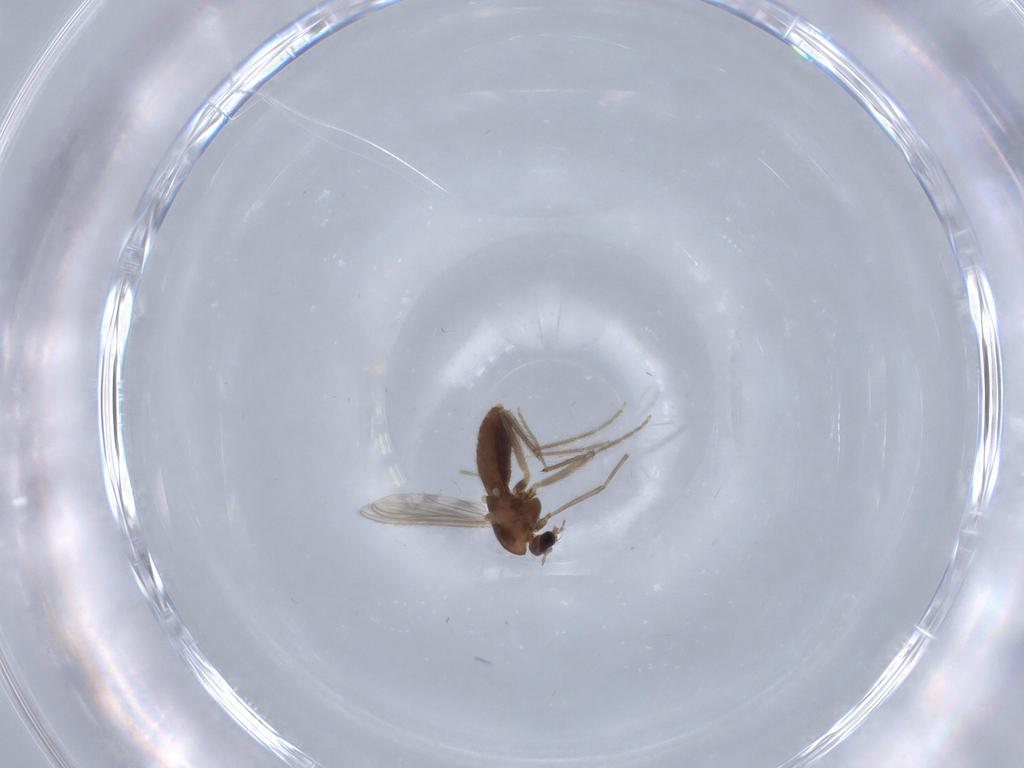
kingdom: Animalia
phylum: Arthropoda
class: Insecta
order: Diptera
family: Chironomidae
